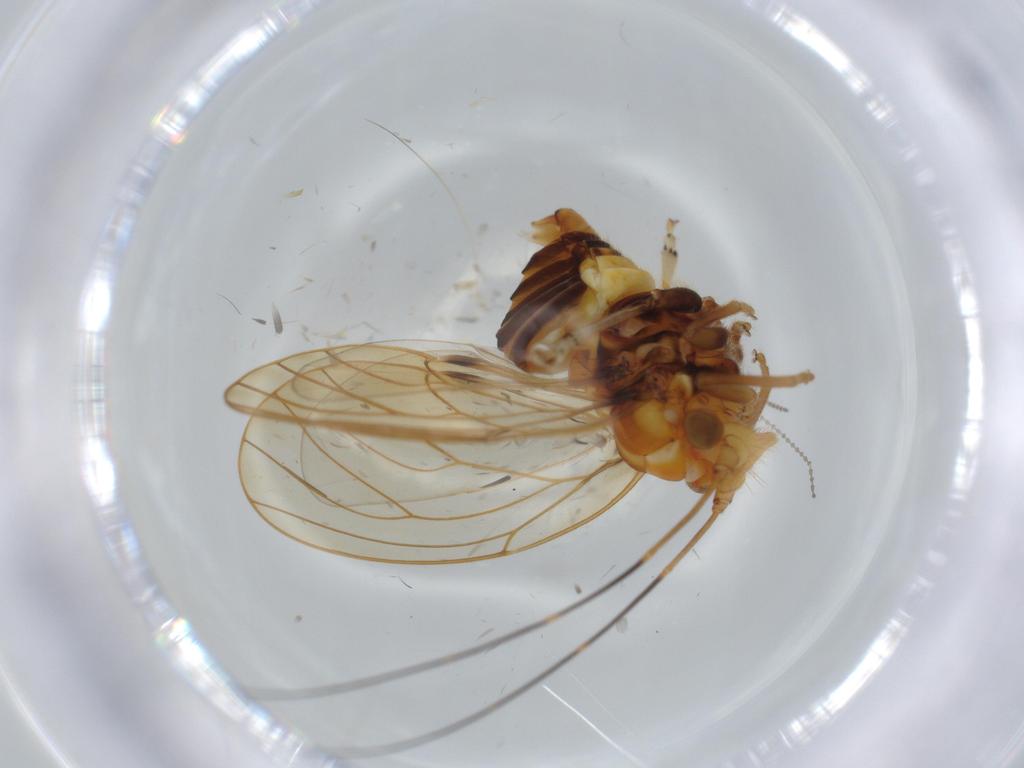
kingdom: Animalia
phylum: Arthropoda
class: Insecta
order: Hemiptera
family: Psyllidae
